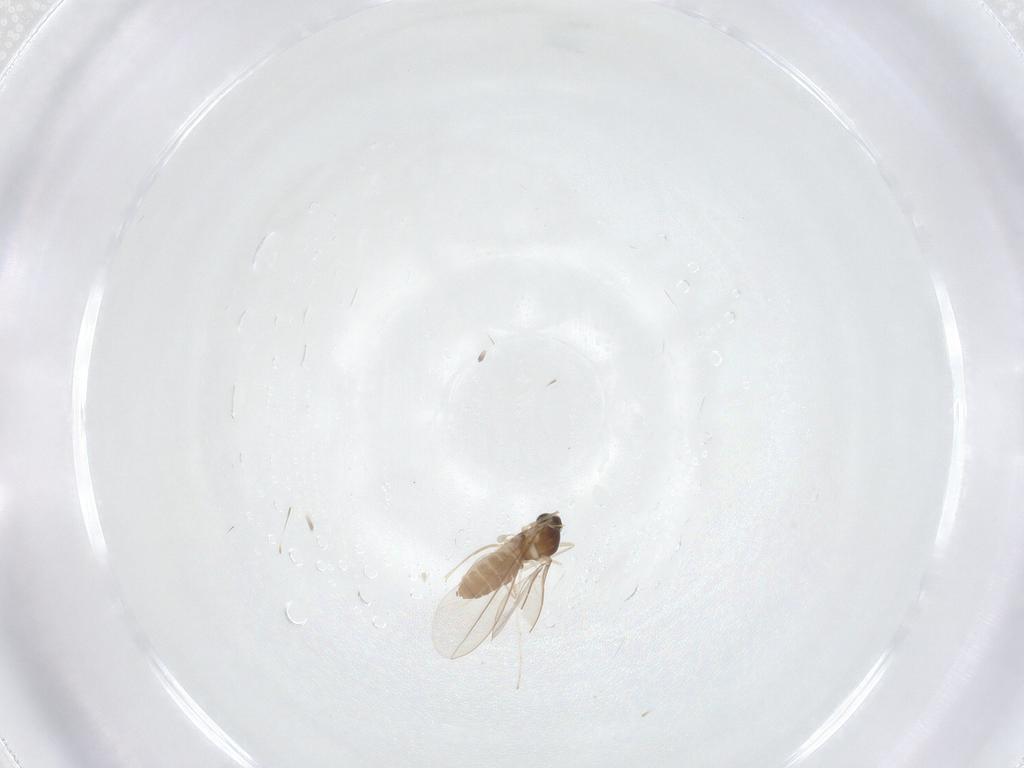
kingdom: Animalia
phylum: Arthropoda
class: Insecta
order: Diptera
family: Cecidomyiidae
